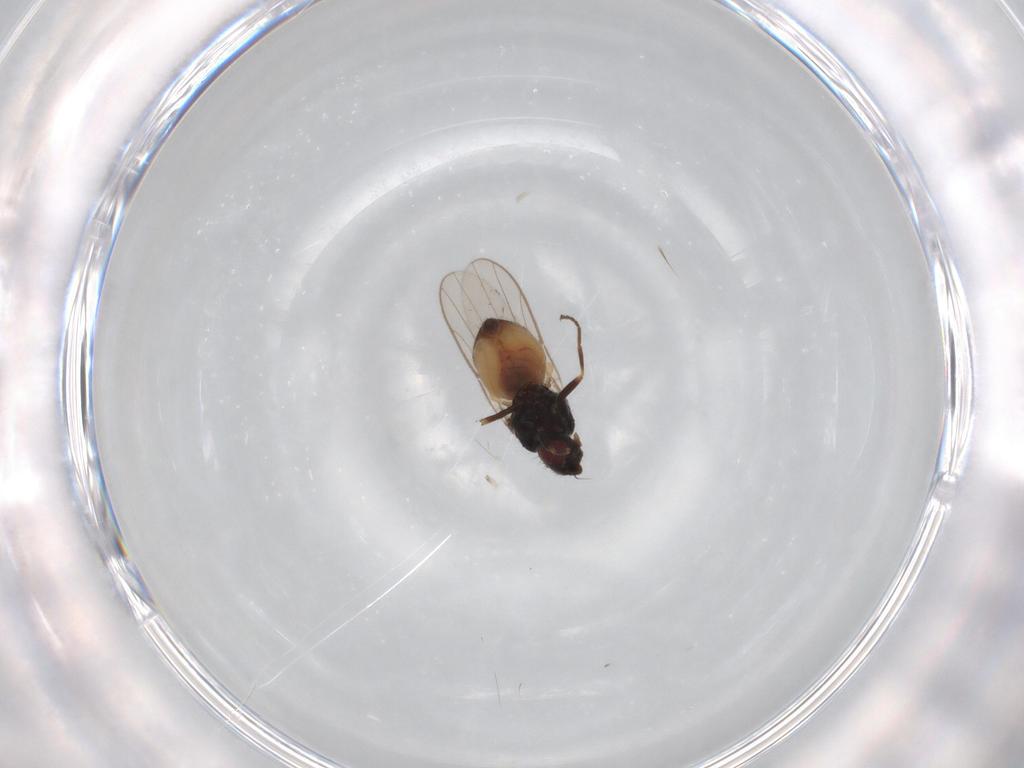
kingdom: Animalia
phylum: Arthropoda
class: Insecta
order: Diptera
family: Chloropidae
